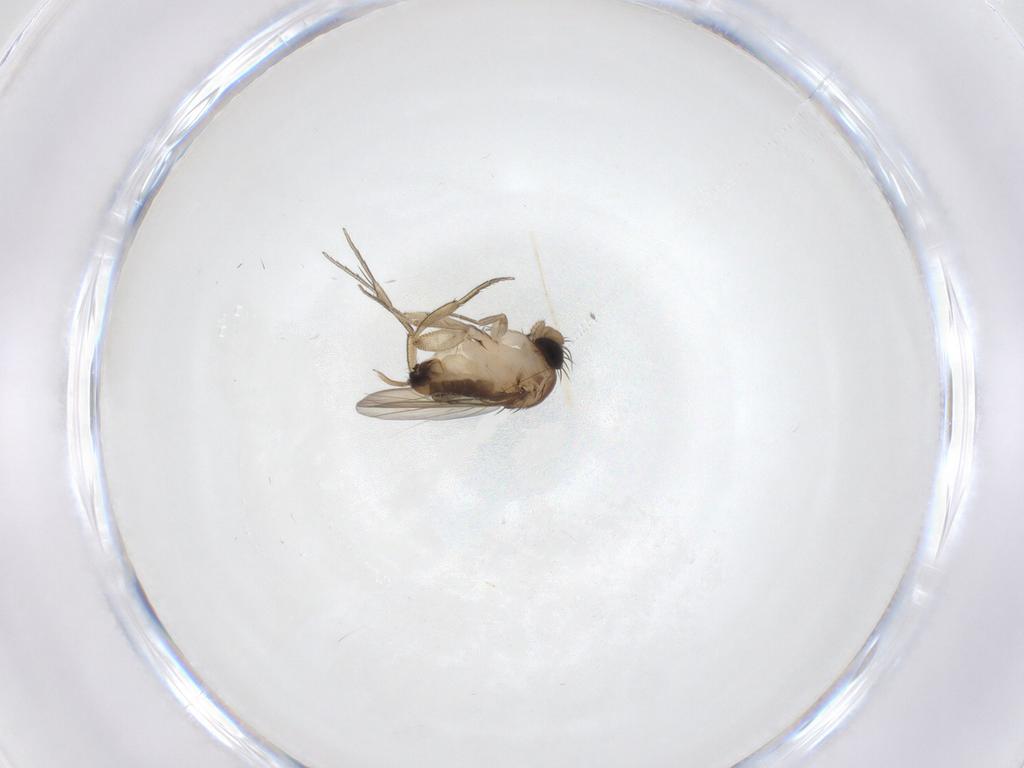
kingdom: Animalia
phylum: Arthropoda
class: Insecta
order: Diptera
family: Phoridae
